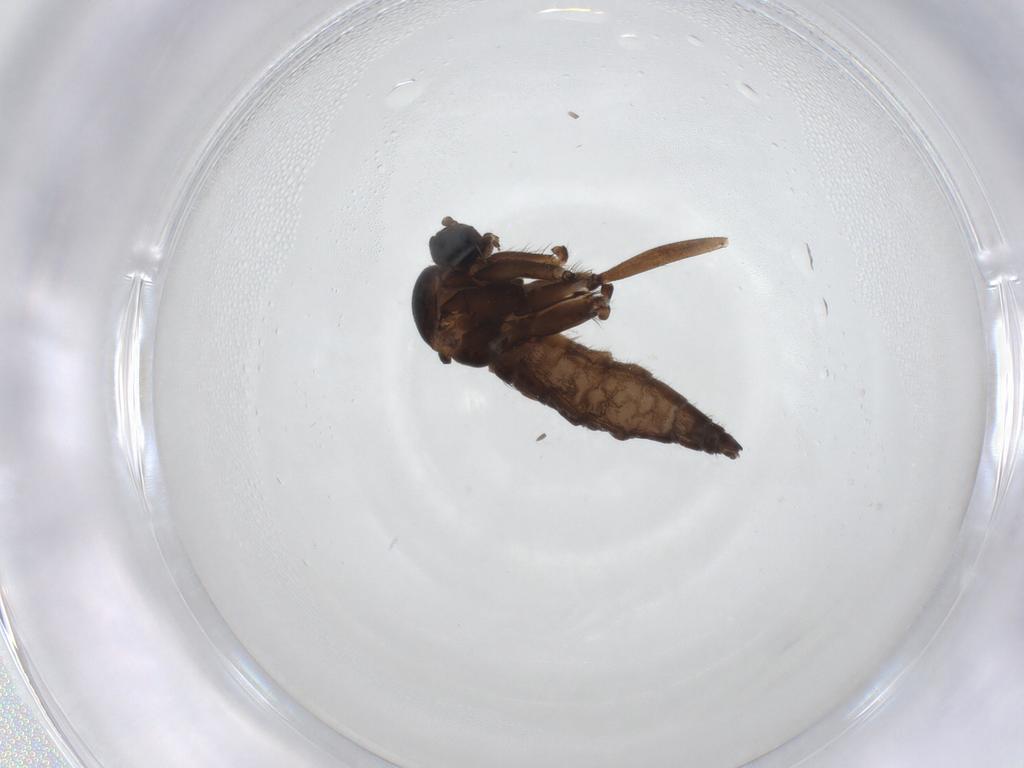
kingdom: Animalia
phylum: Arthropoda
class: Insecta
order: Diptera
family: Sciaridae
